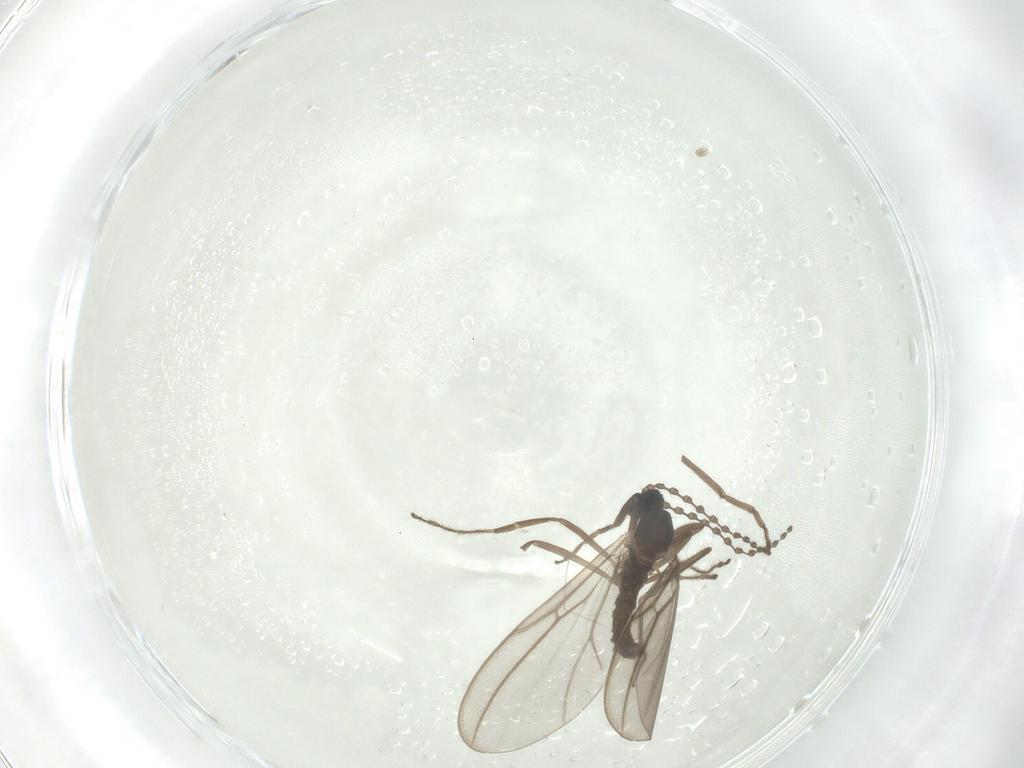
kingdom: Animalia
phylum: Arthropoda
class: Insecta
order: Diptera
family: Cecidomyiidae
